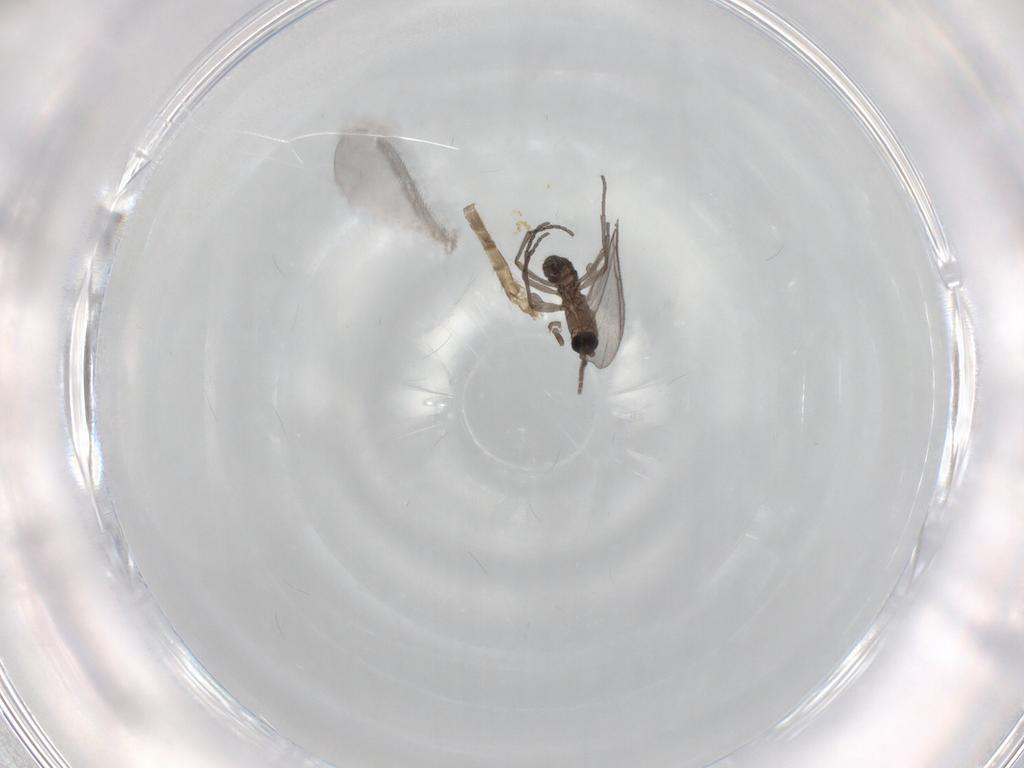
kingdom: Animalia
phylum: Arthropoda
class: Insecta
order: Diptera
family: Sciaridae
